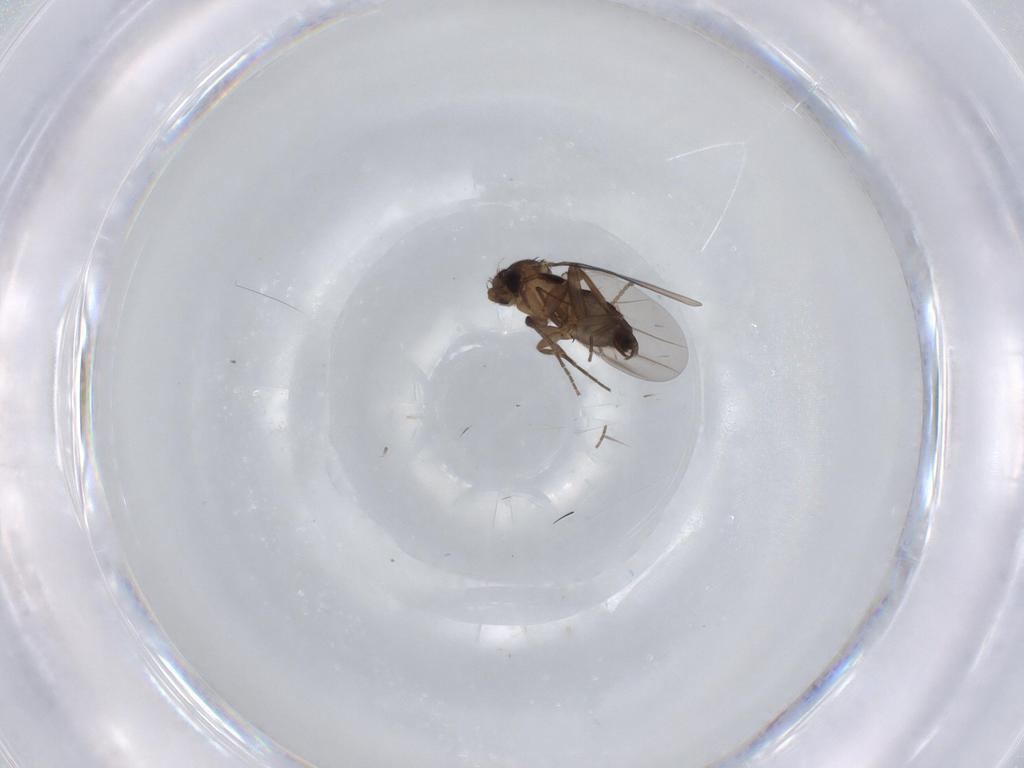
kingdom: Animalia
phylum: Arthropoda
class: Insecta
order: Diptera
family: Phoridae
